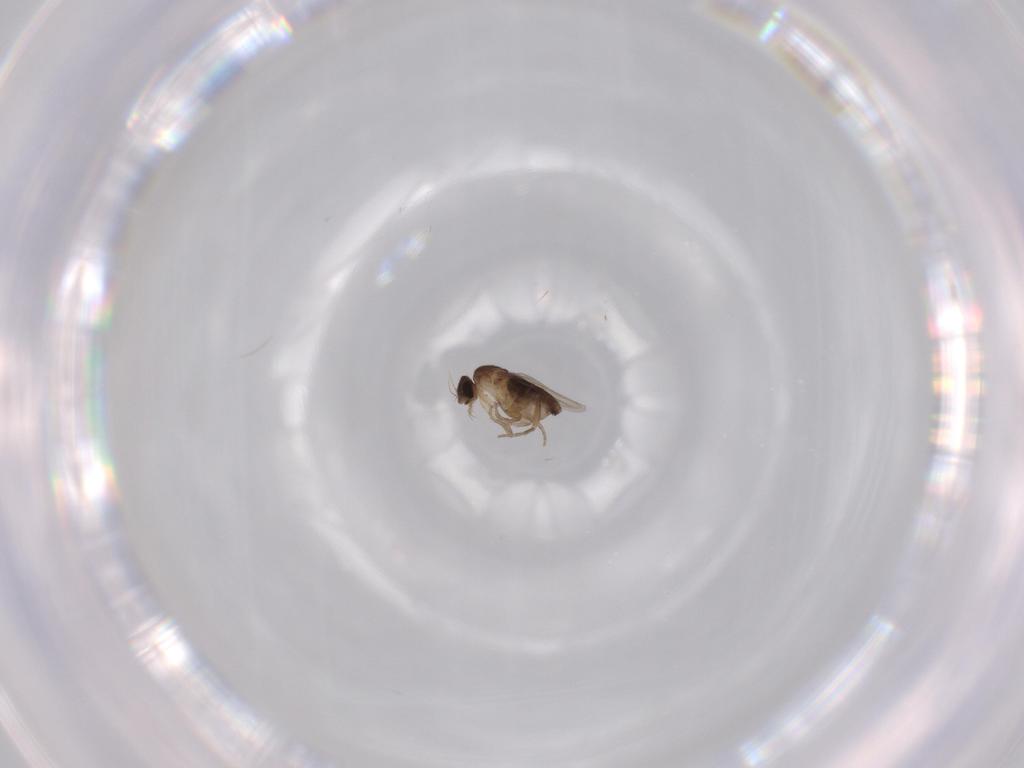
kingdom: Animalia
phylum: Arthropoda
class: Insecta
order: Diptera
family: Phoridae
